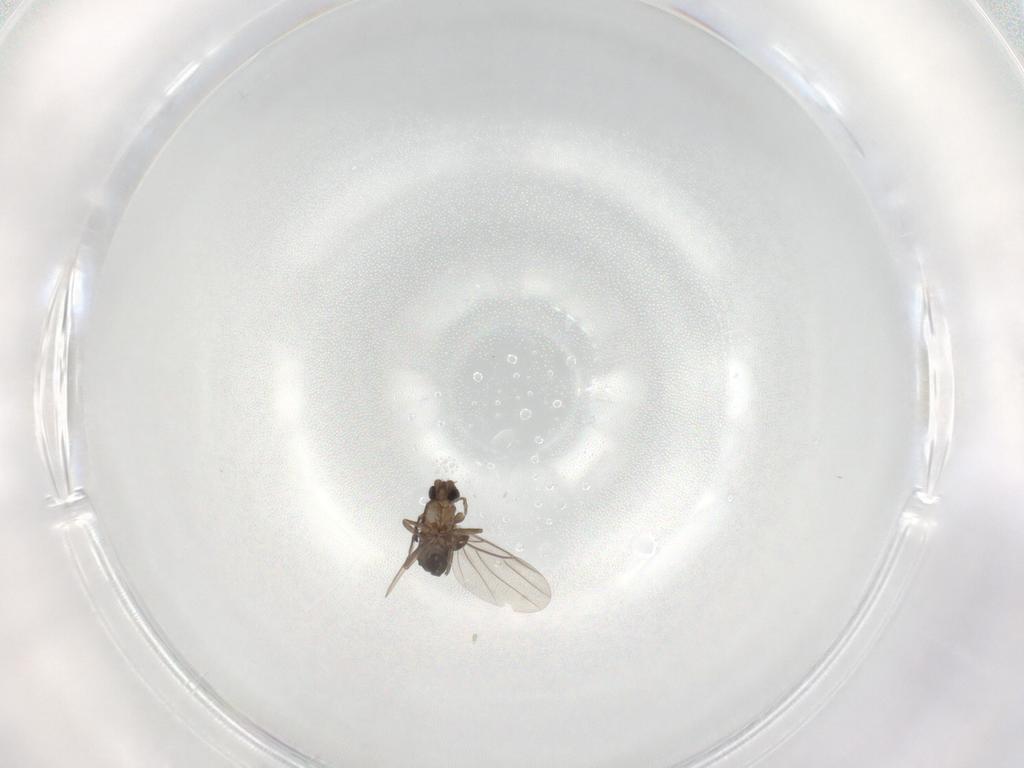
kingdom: Animalia
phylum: Arthropoda
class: Insecta
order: Diptera
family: Phoridae
